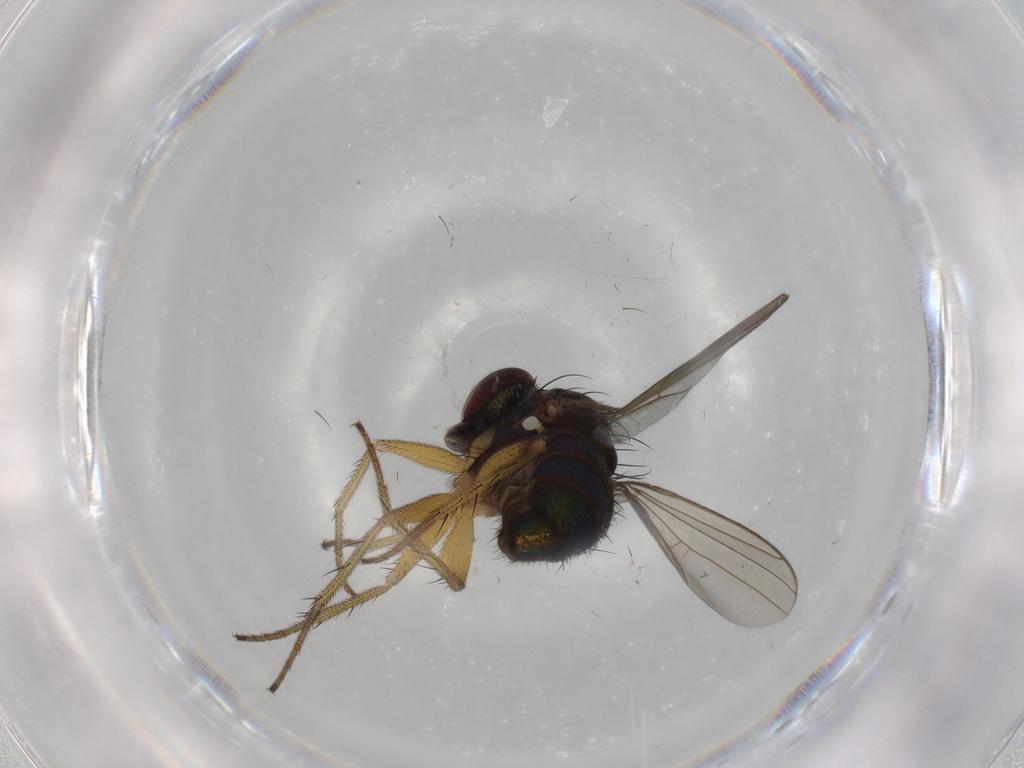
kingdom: Animalia
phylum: Arthropoda
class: Insecta
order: Diptera
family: Dolichopodidae
